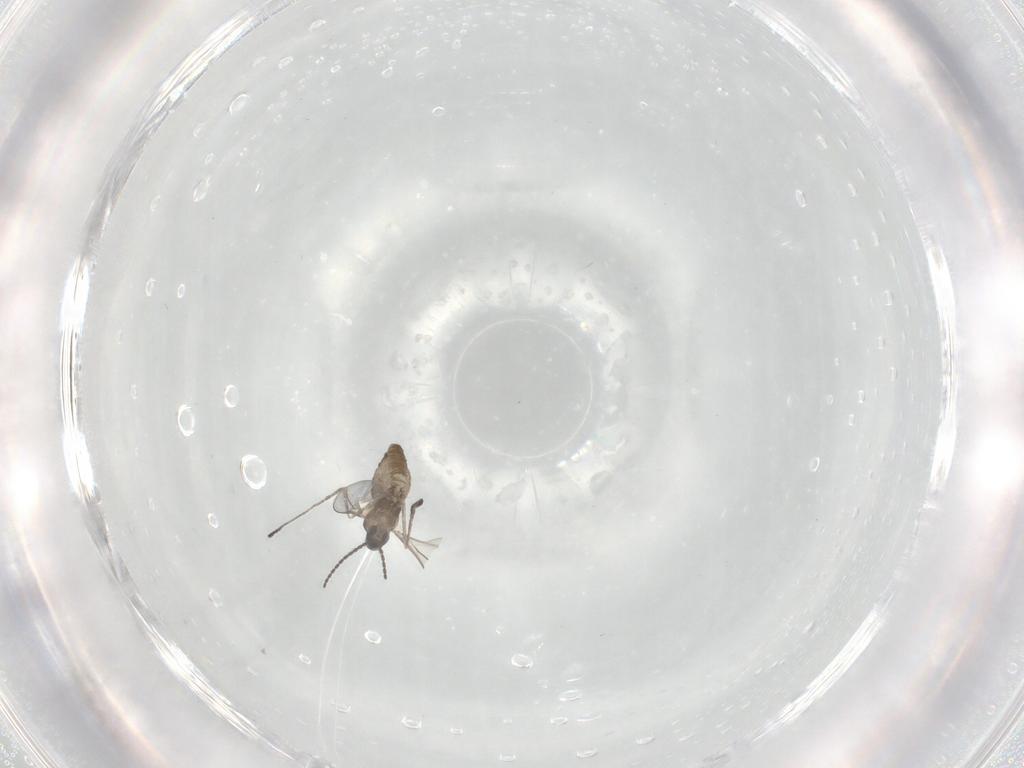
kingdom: Animalia
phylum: Arthropoda
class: Insecta
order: Diptera
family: Cecidomyiidae
